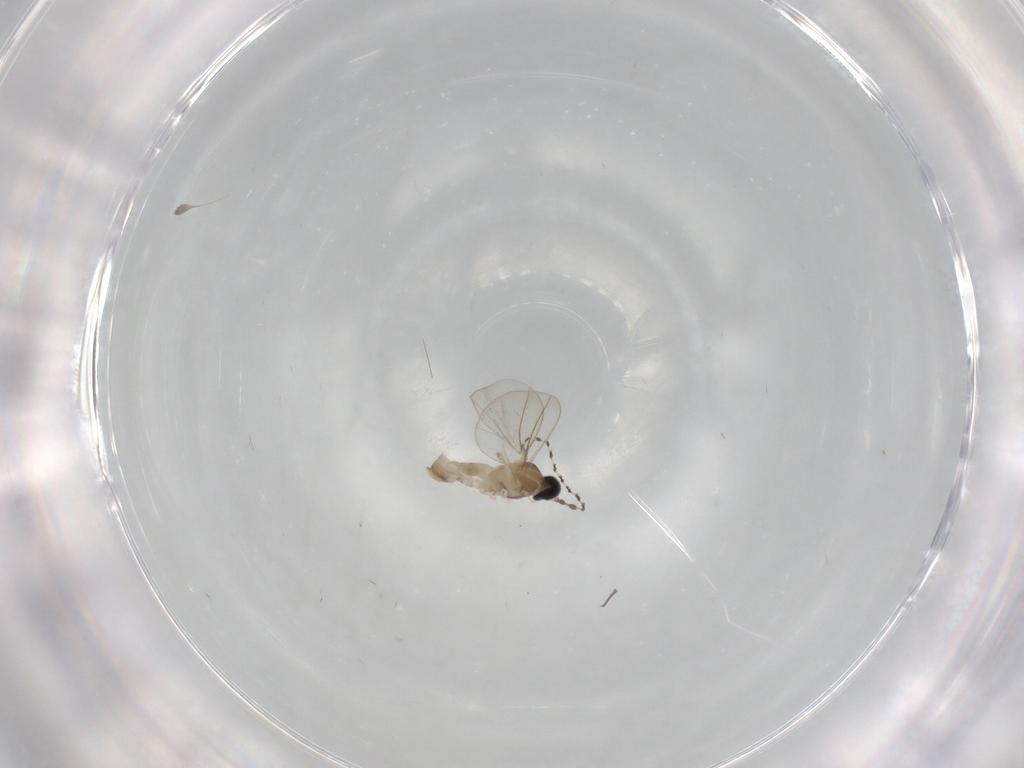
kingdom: Animalia
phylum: Arthropoda
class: Insecta
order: Diptera
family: Cecidomyiidae
